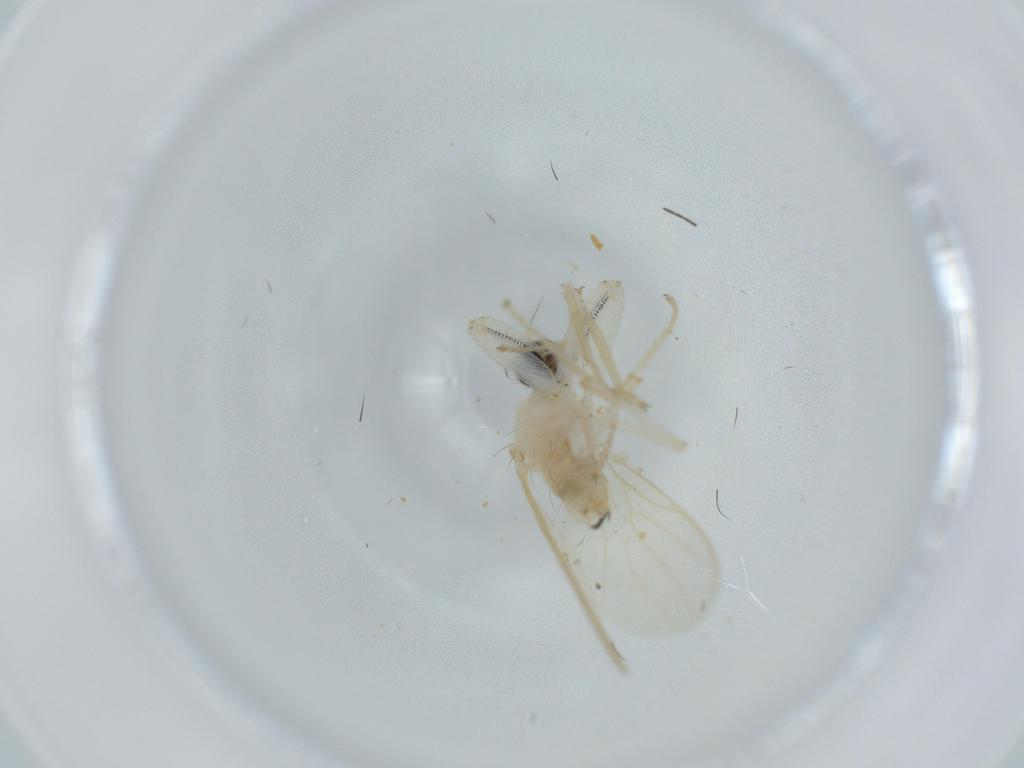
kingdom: Animalia
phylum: Arthropoda
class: Insecta
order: Diptera
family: Hybotidae
